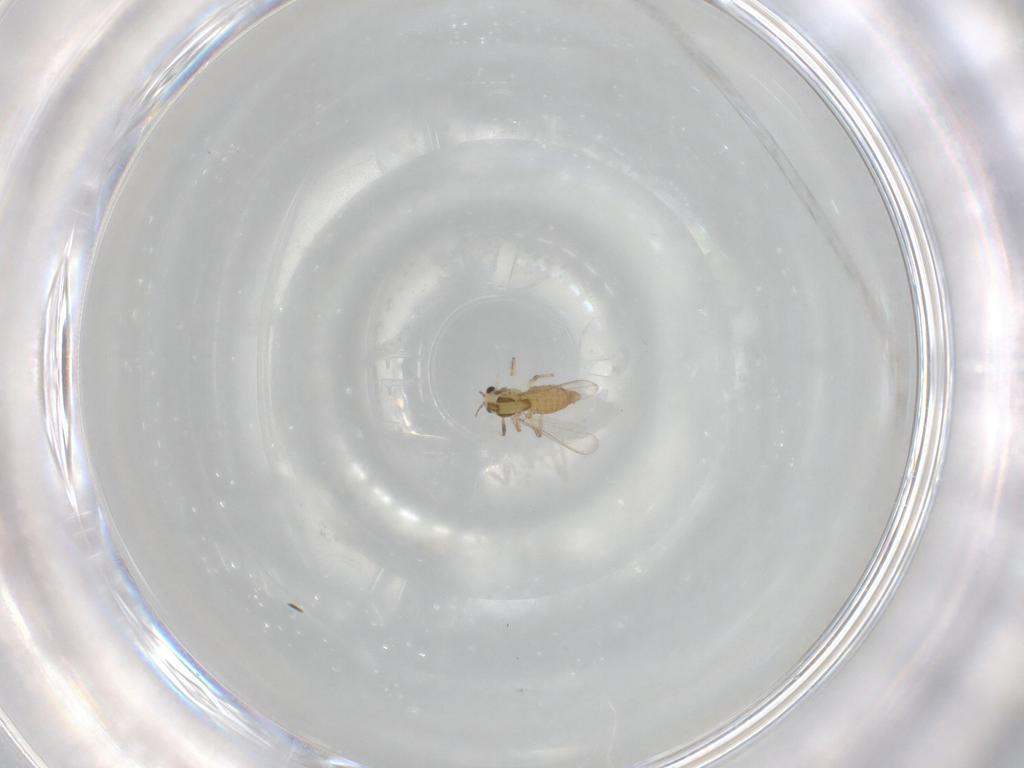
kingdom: Animalia
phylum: Arthropoda
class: Insecta
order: Diptera
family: Chironomidae
